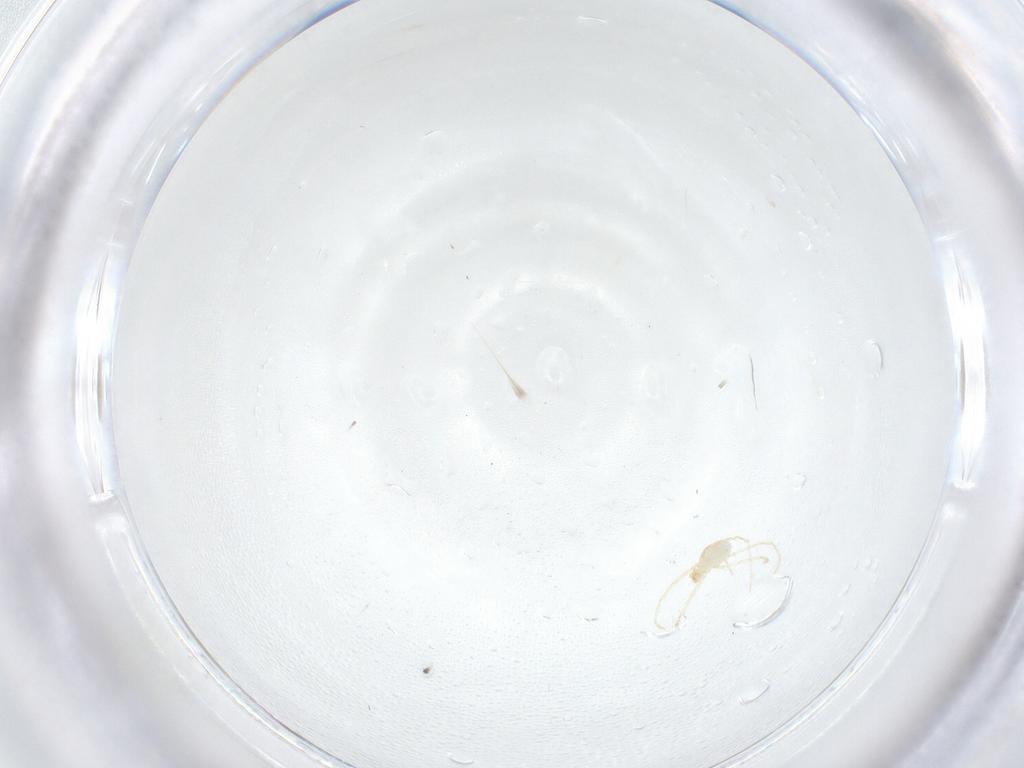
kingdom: Animalia
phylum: Arthropoda
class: Arachnida
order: Trombidiformes
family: Erythraeidae
